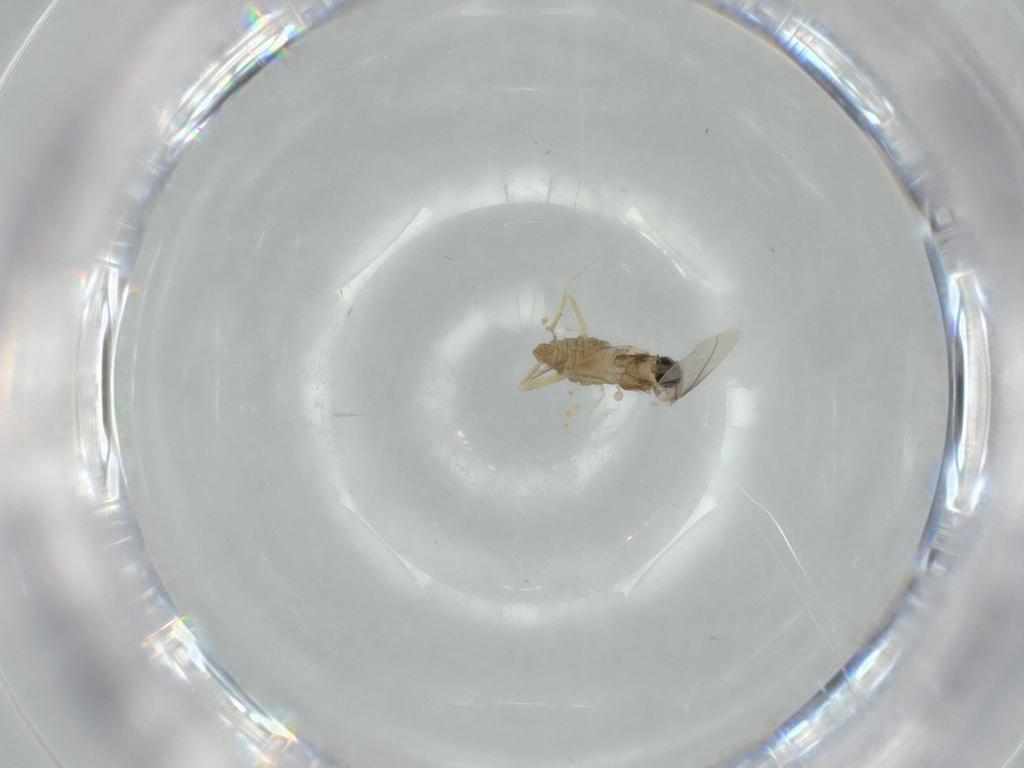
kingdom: Animalia
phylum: Arthropoda
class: Insecta
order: Diptera
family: Cecidomyiidae
